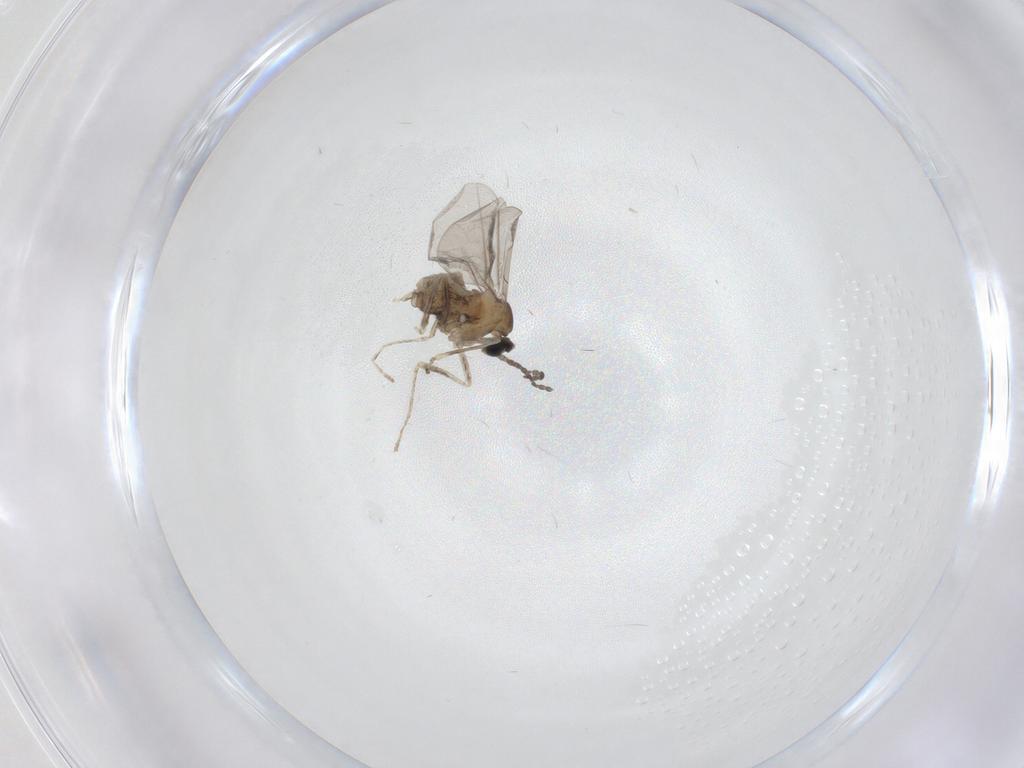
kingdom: Animalia
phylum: Arthropoda
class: Insecta
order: Diptera
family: Cecidomyiidae
